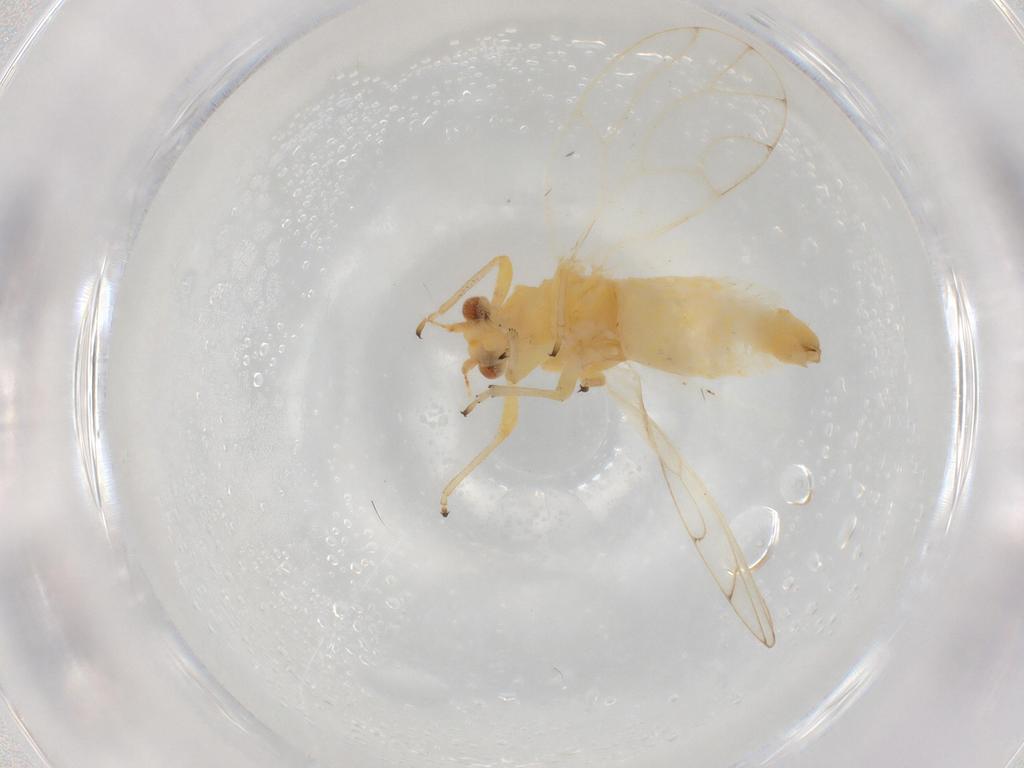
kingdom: Animalia
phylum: Arthropoda
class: Insecta
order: Hemiptera
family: Aphalaridae
